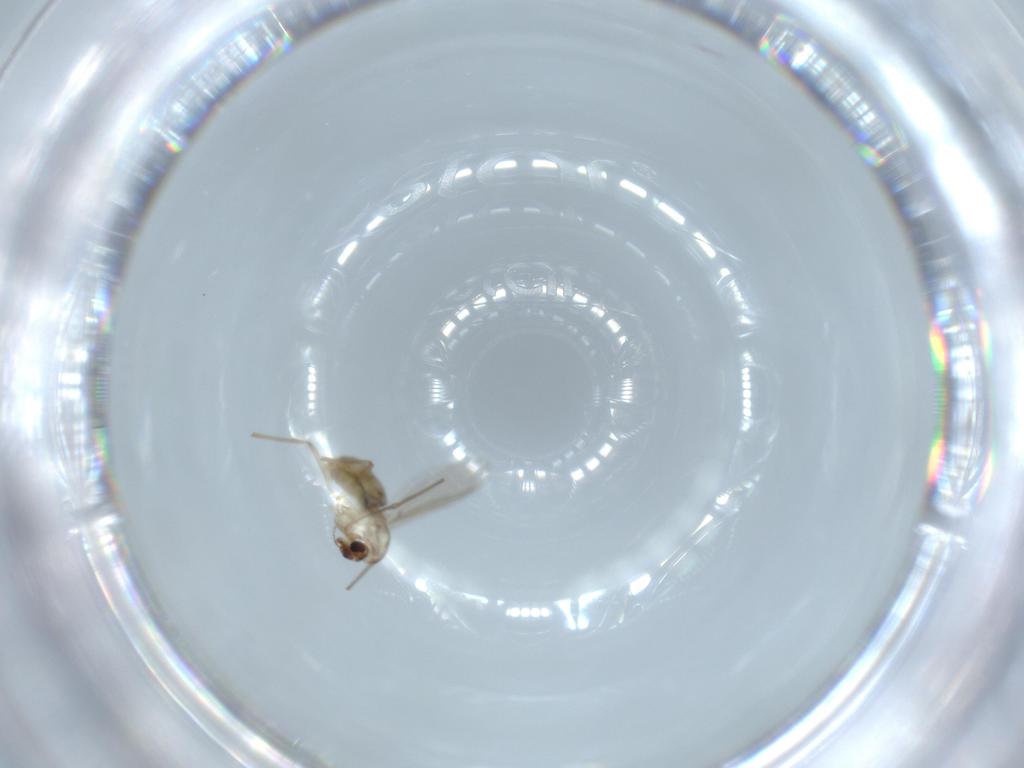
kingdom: Animalia
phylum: Arthropoda
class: Insecta
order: Diptera
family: Chironomidae
